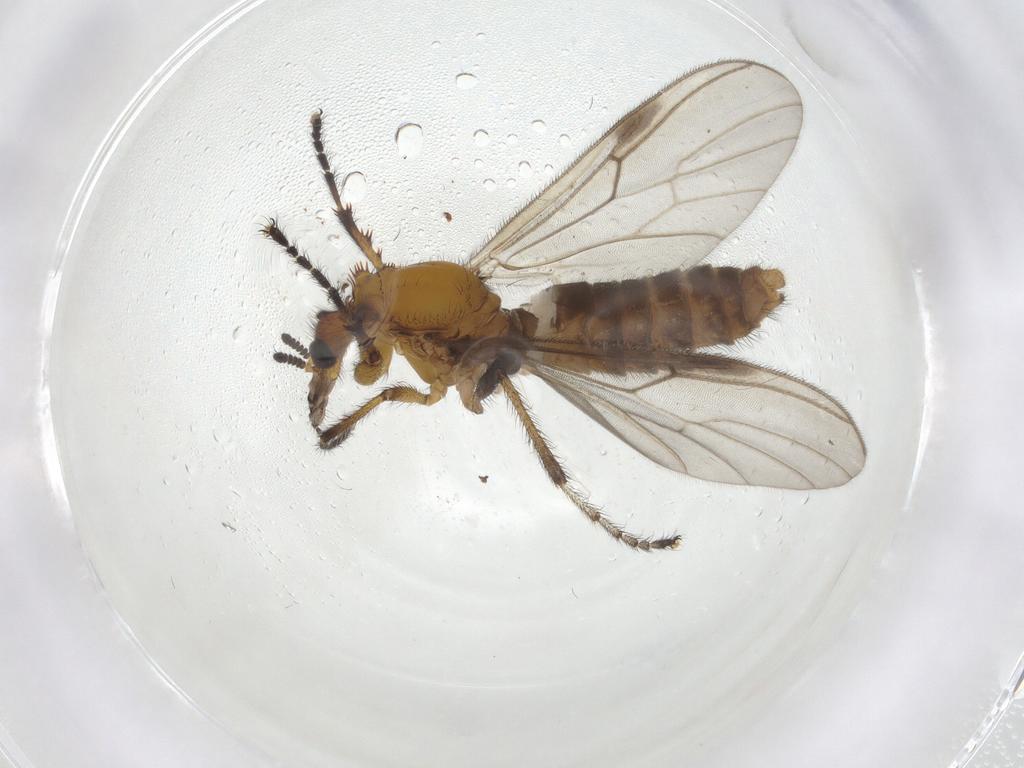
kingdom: Animalia
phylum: Arthropoda
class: Insecta
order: Diptera
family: Bibionidae
